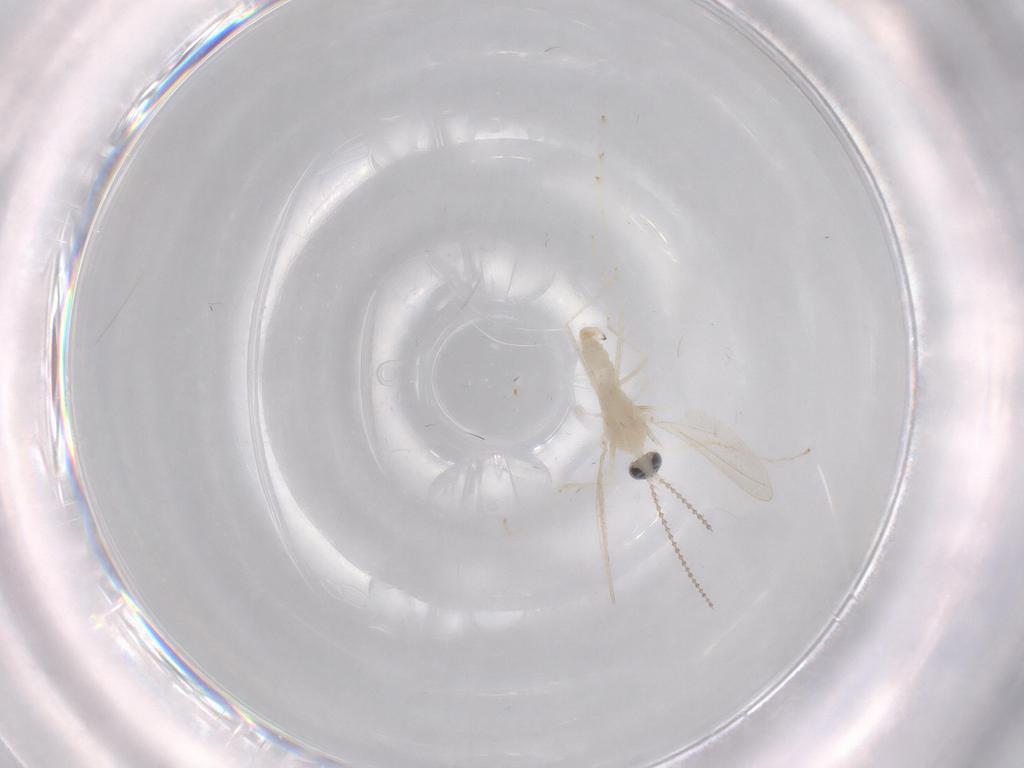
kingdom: Animalia
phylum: Arthropoda
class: Insecta
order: Diptera
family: Cecidomyiidae
